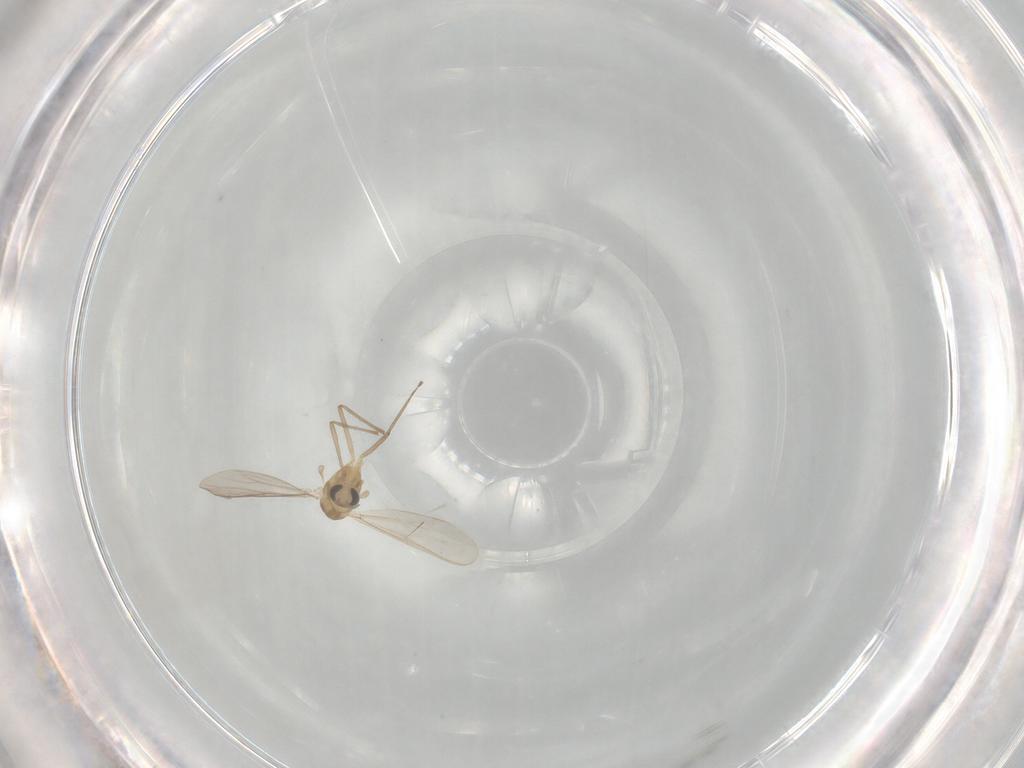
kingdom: Animalia
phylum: Arthropoda
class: Insecta
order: Diptera
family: Chironomidae
